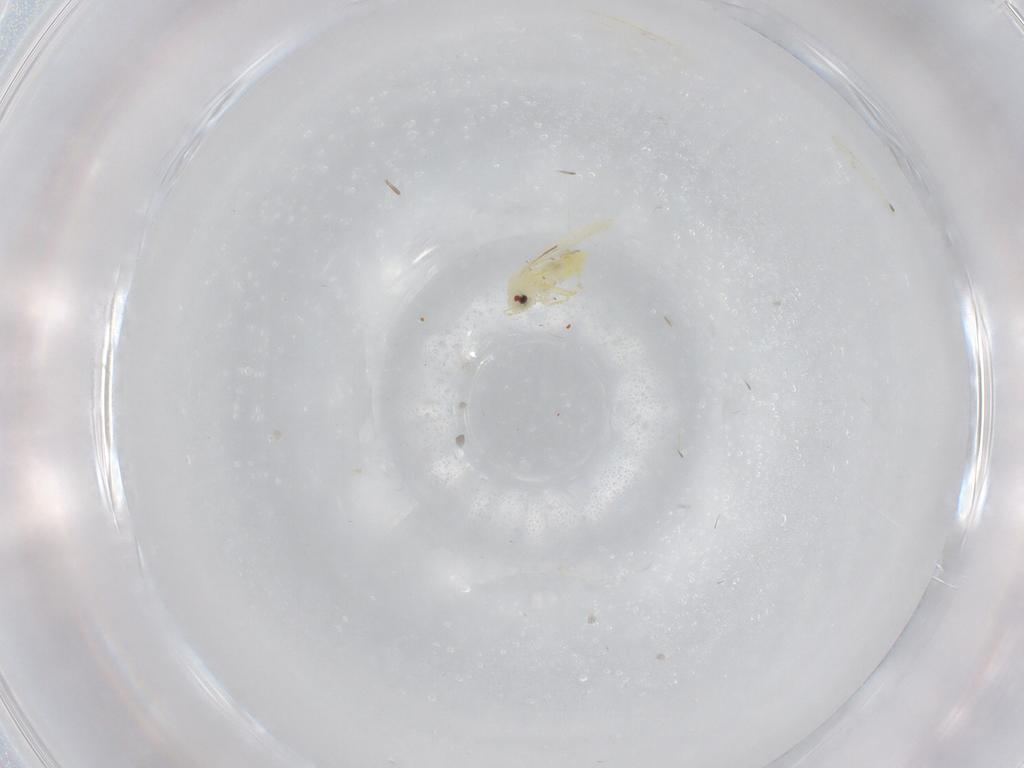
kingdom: Animalia
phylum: Arthropoda
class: Insecta
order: Hemiptera
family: Aleyrodidae
